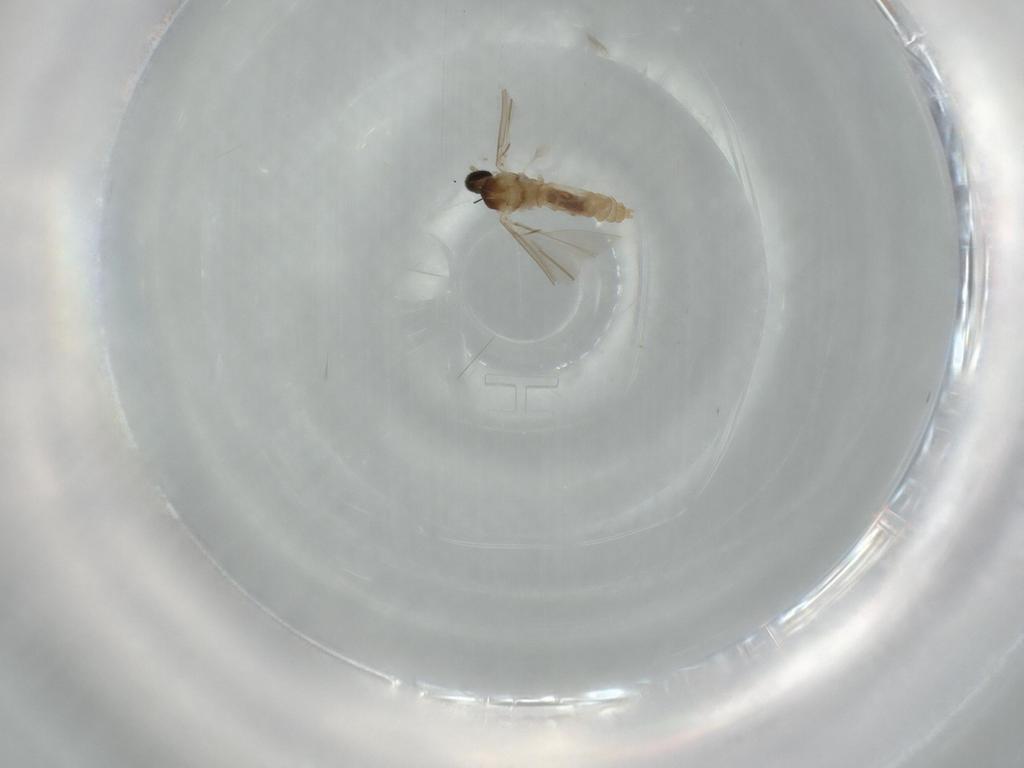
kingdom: Animalia
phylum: Arthropoda
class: Insecta
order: Diptera
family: Cecidomyiidae
